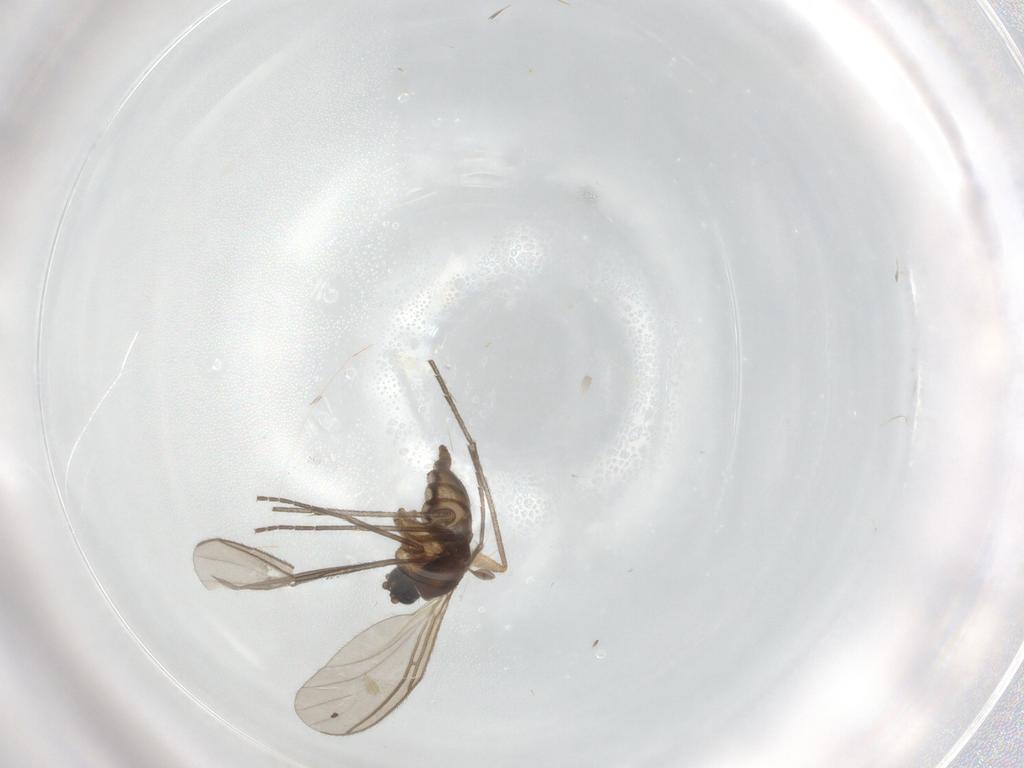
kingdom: Animalia
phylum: Arthropoda
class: Insecta
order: Diptera
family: Sciaridae
